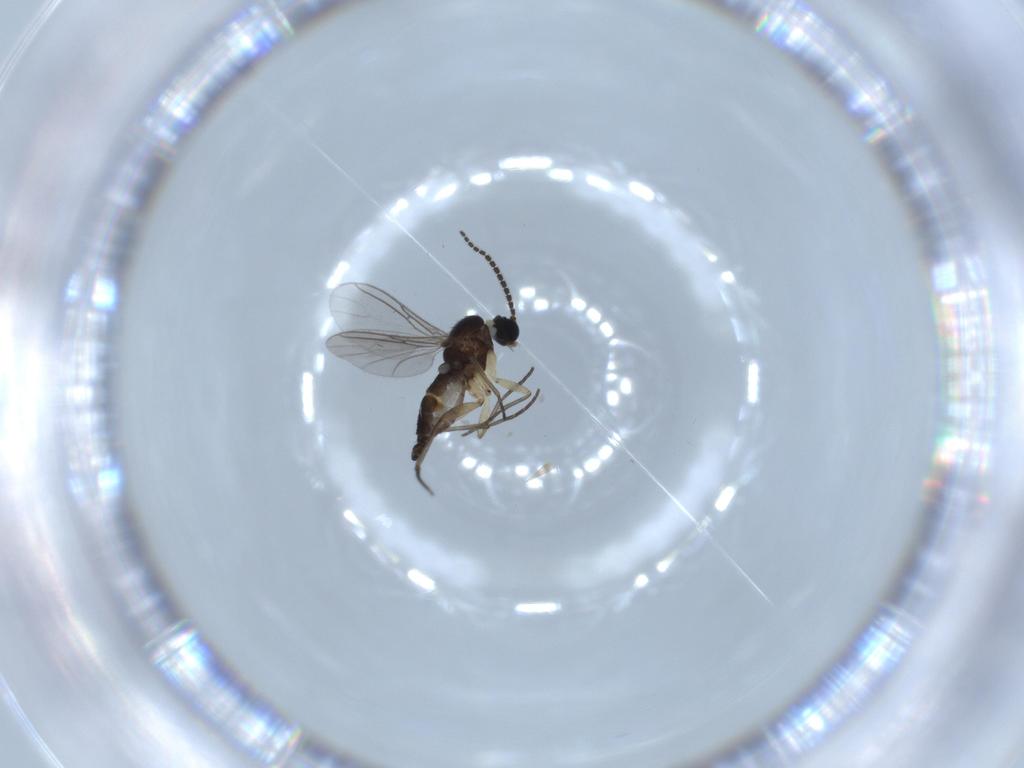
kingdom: Animalia
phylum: Arthropoda
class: Insecta
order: Diptera
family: Sciaridae
